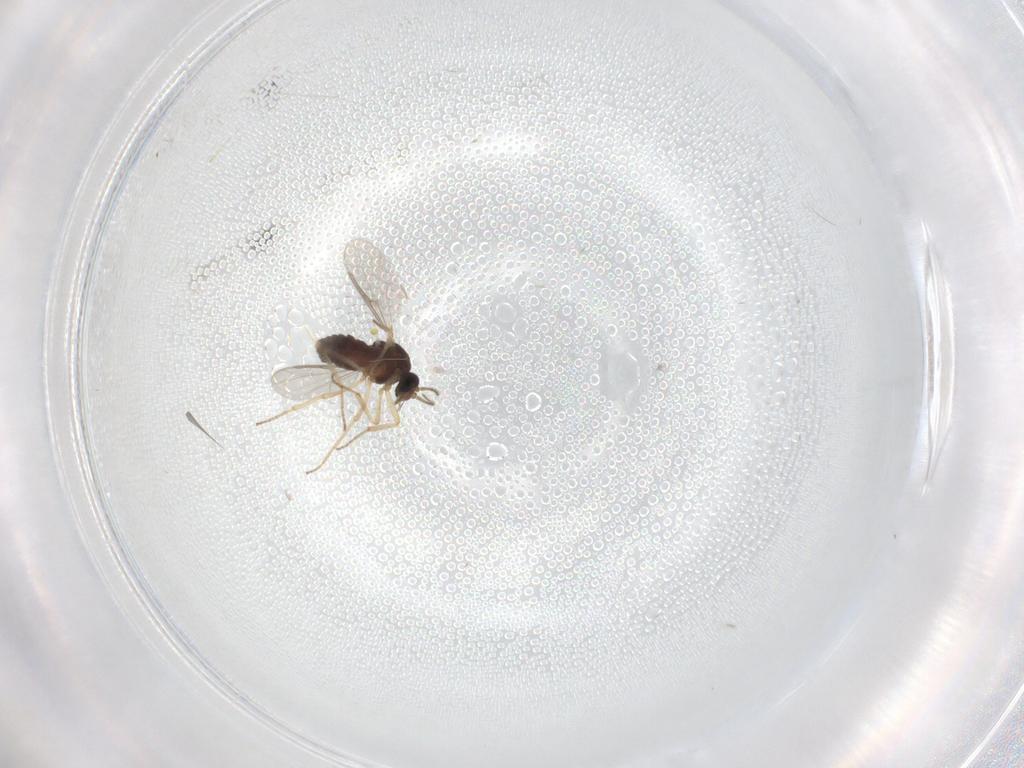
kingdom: Animalia
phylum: Arthropoda
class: Insecta
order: Diptera
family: Ceratopogonidae
